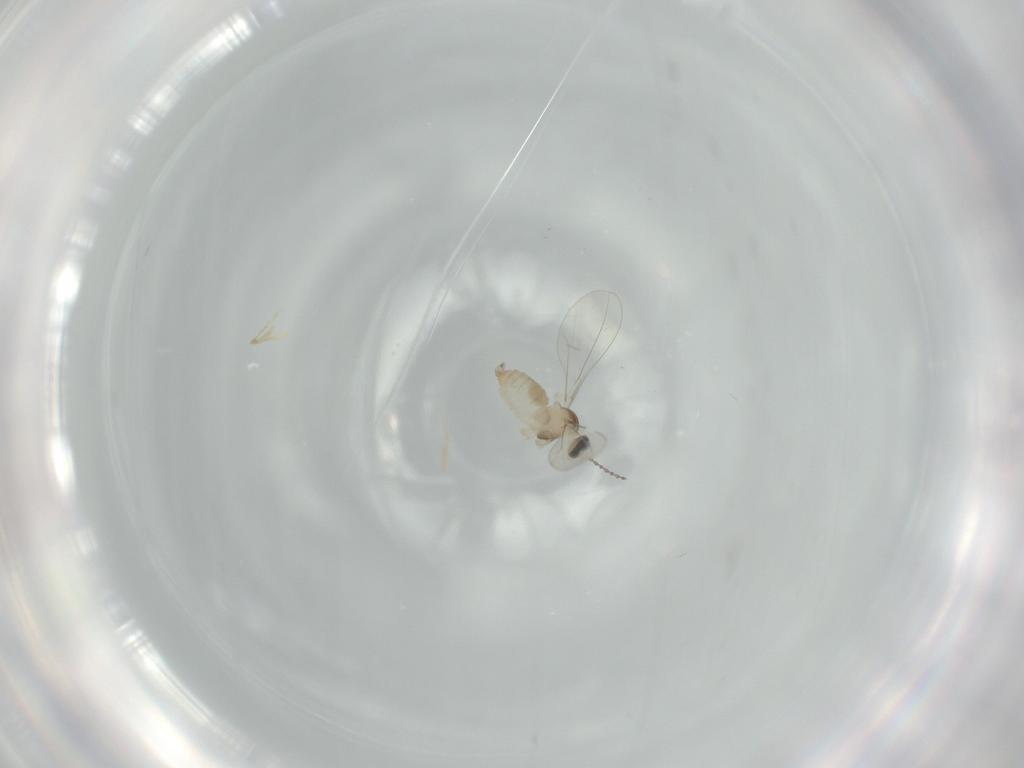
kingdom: Animalia
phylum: Arthropoda
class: Insecta
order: Diptera
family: Cecidomyiidae
